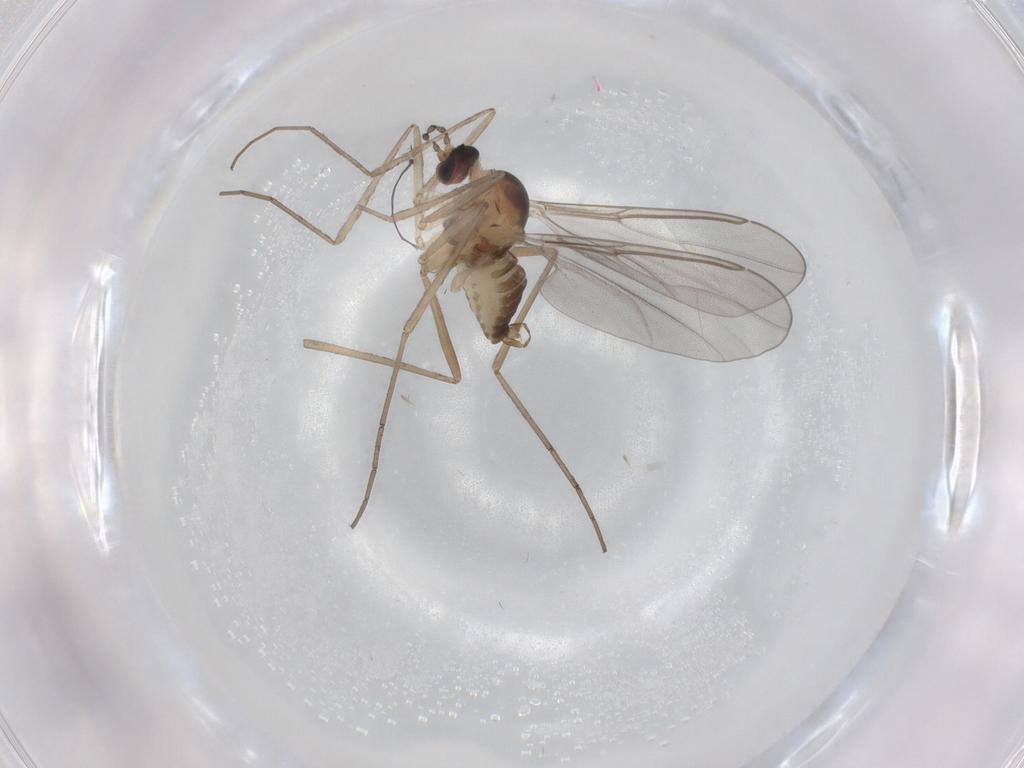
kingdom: Animalia
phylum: Arthropoda
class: Insecta
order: Diptera
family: Cecidomyiidae
